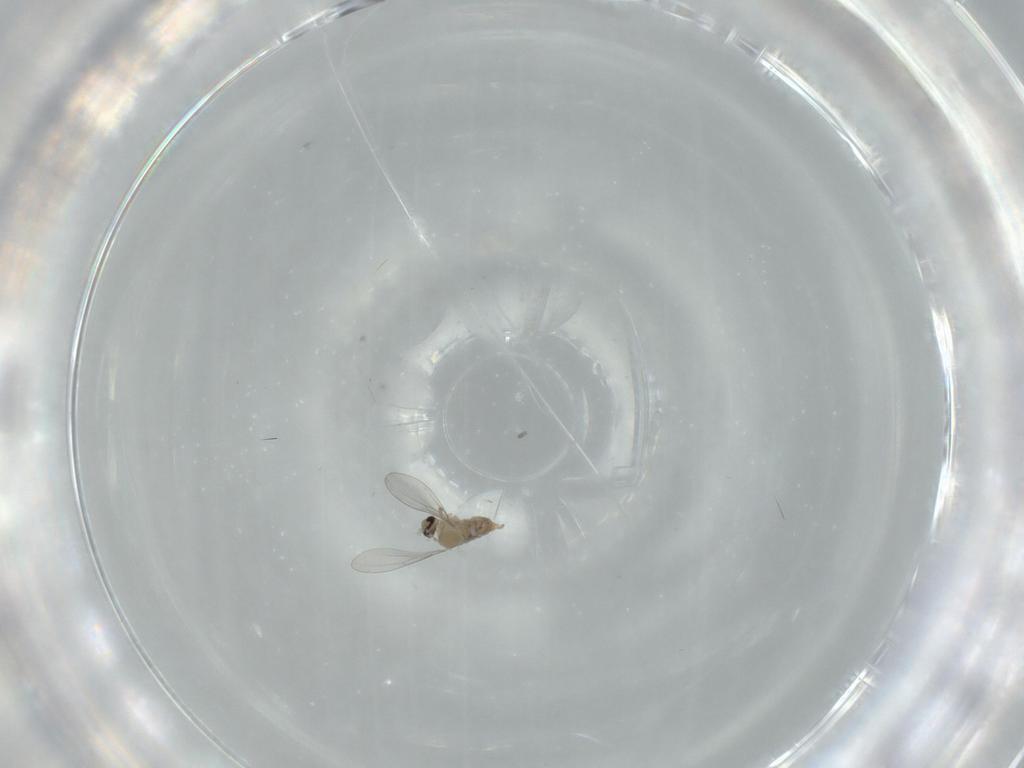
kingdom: Animalia
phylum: Arthropoda
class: Insecta
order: Diptera
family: Cecidomyiidae
